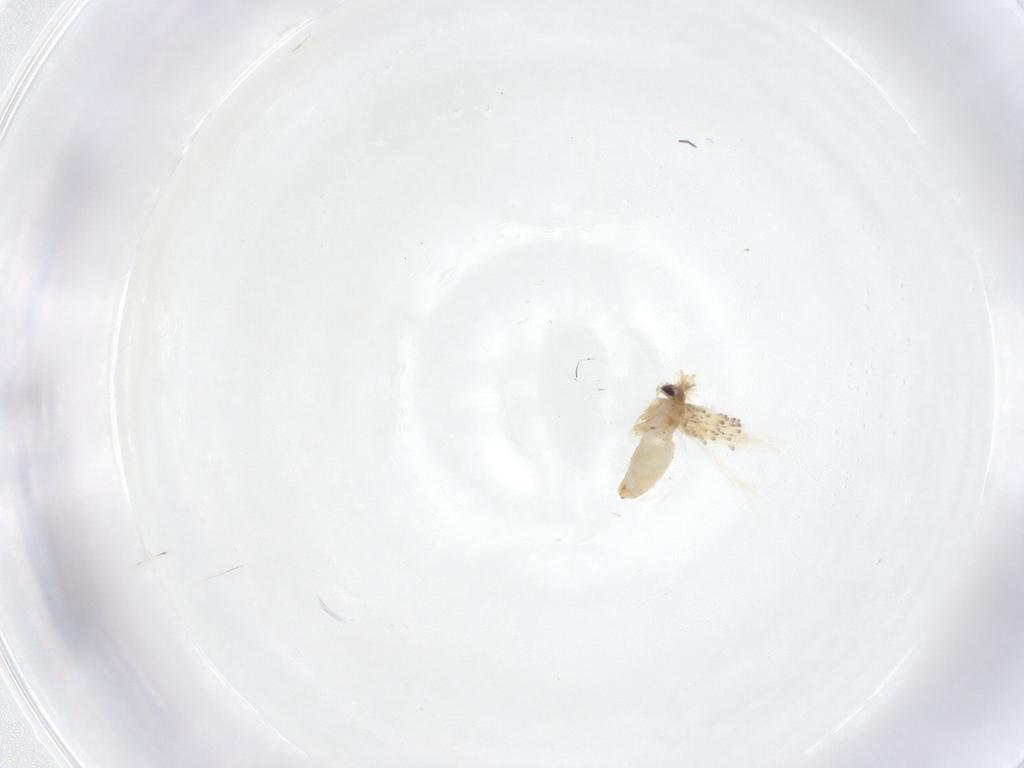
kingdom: Animalia
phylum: Arthropoda
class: Insecta
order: Lepidoptera
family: Crambidae
